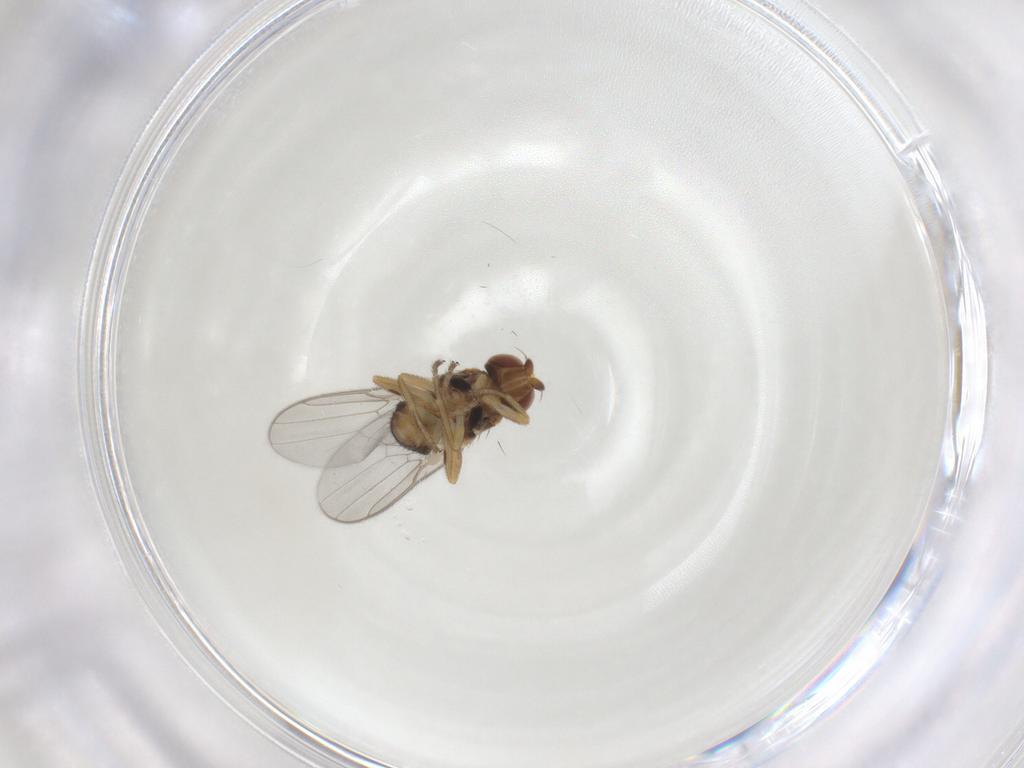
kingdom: Animalia
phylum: Arthropoda
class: Insecta
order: Diptera
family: Chloropidae
